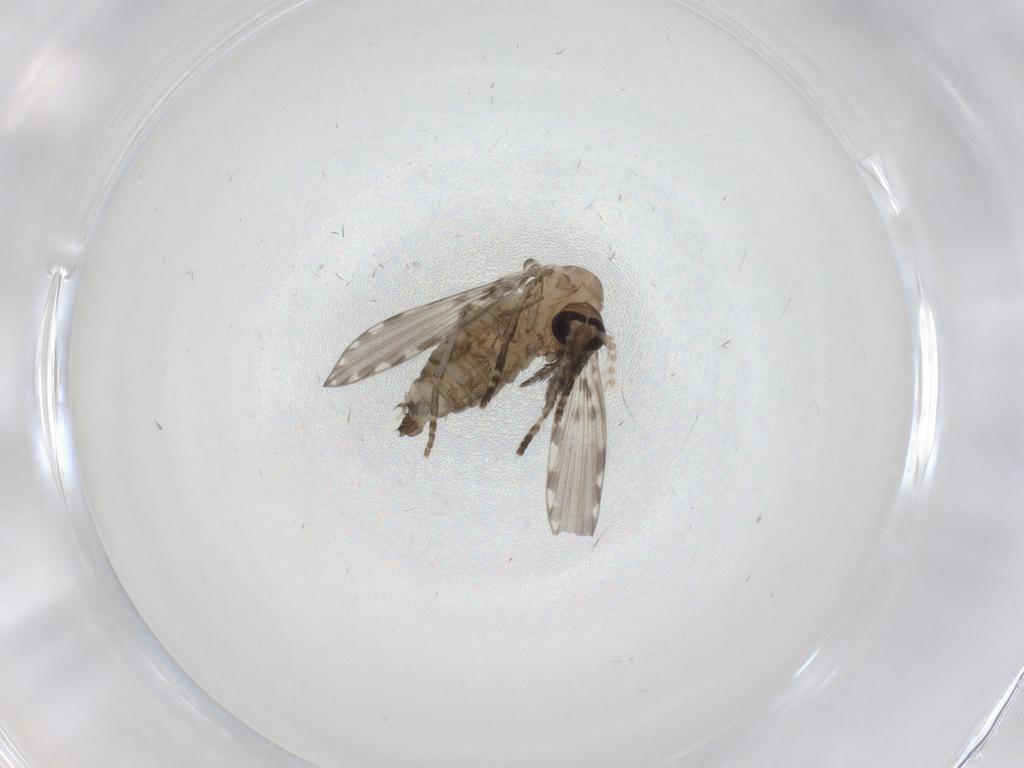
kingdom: Animalia
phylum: Arthropoda
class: Insecta
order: Diptera
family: Psychodidae
